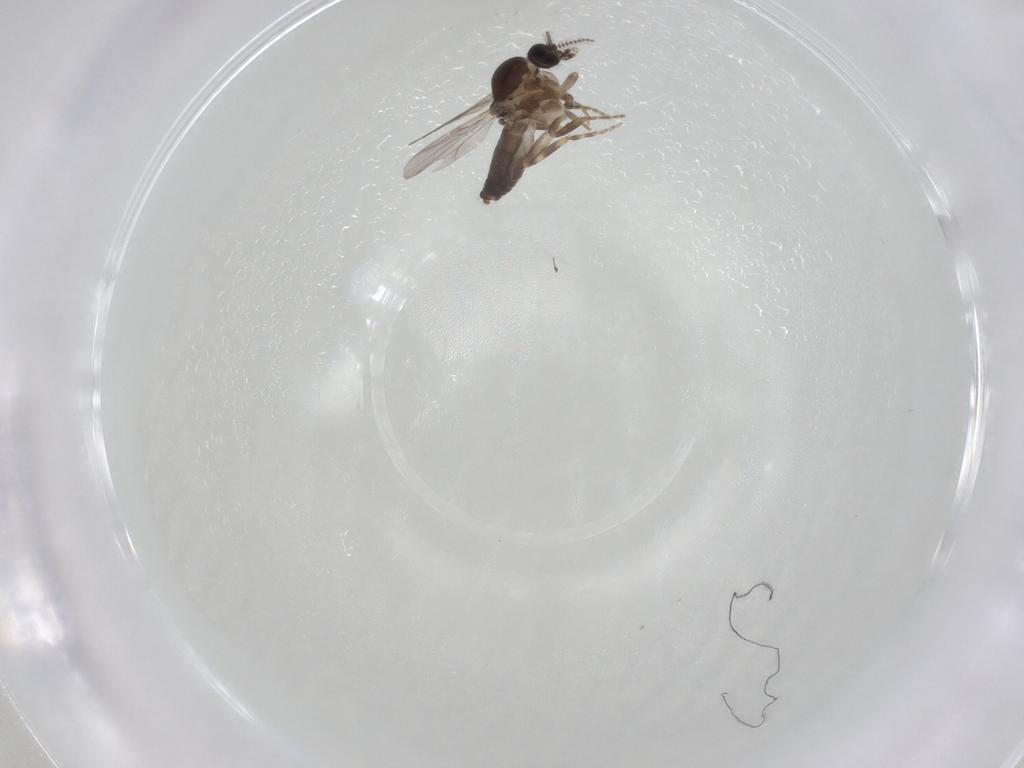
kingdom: Animalia
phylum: Arthropoda
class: Insecta
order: Diptera
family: Ceratopogonidae
